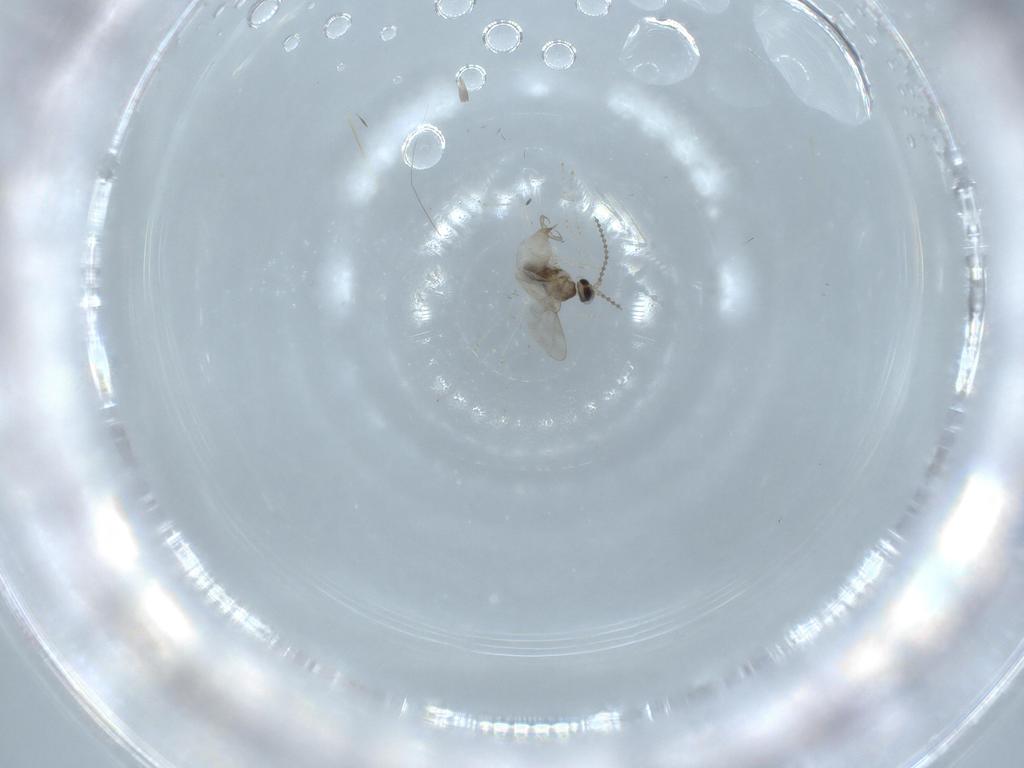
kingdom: Animalia
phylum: Arthropoda
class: Insecta
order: Diptera
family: Cecidomyiidae
